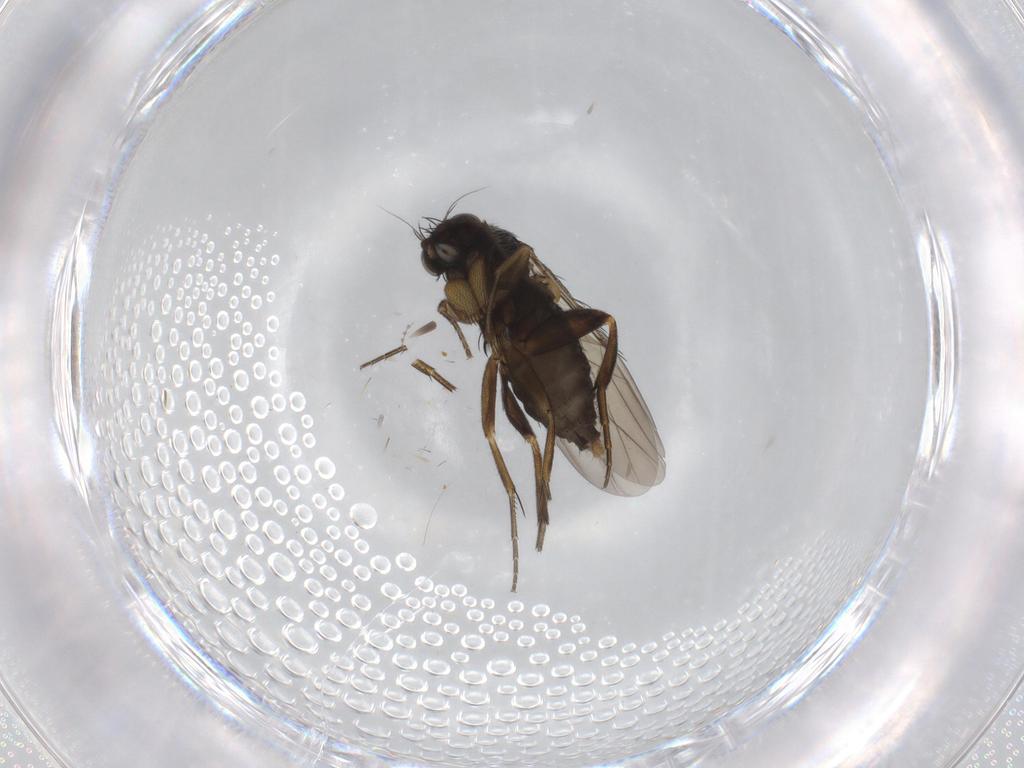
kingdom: Animalia
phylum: Arthropoda
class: Insecta
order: Diptera
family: Phoridae
